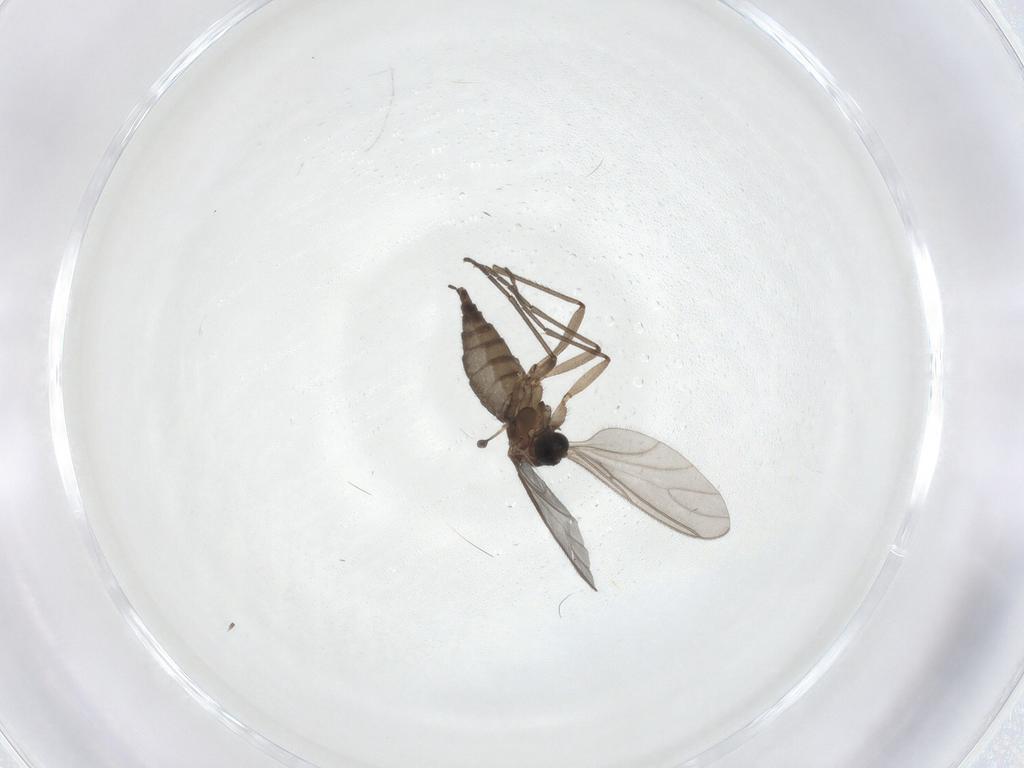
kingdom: Animalia
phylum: Arthropoda
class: Insecta
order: Diptera
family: Sciaridae
